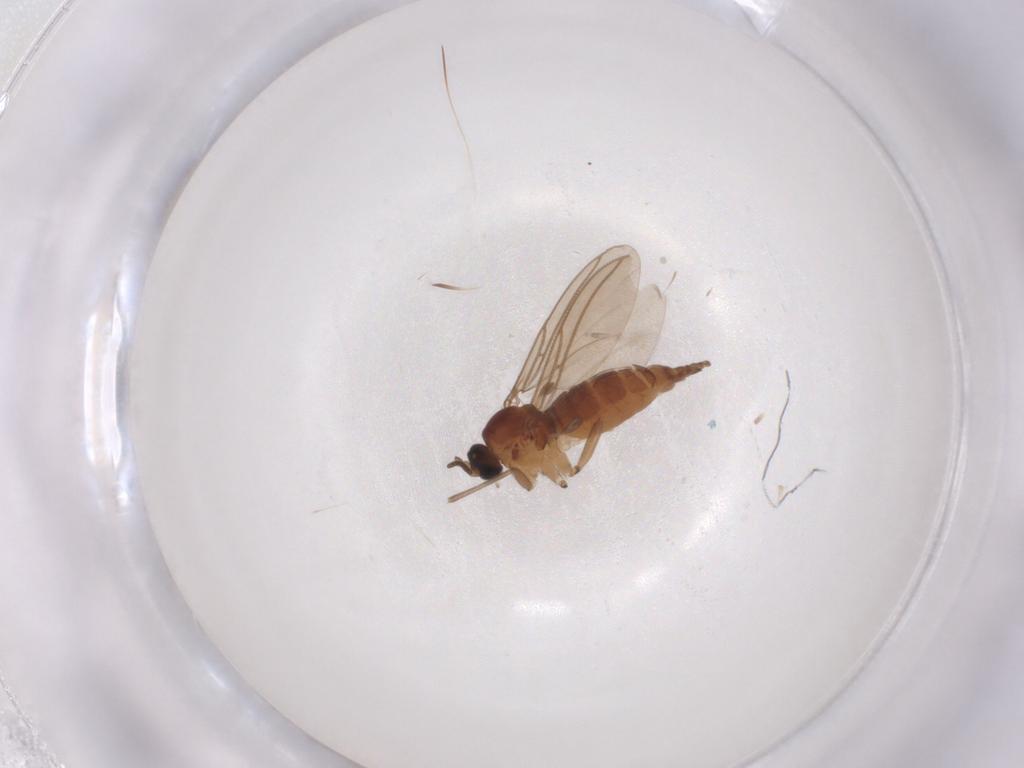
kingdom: Animalia
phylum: Arthropoda
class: Insecta
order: Diptera
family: Sciaridae
